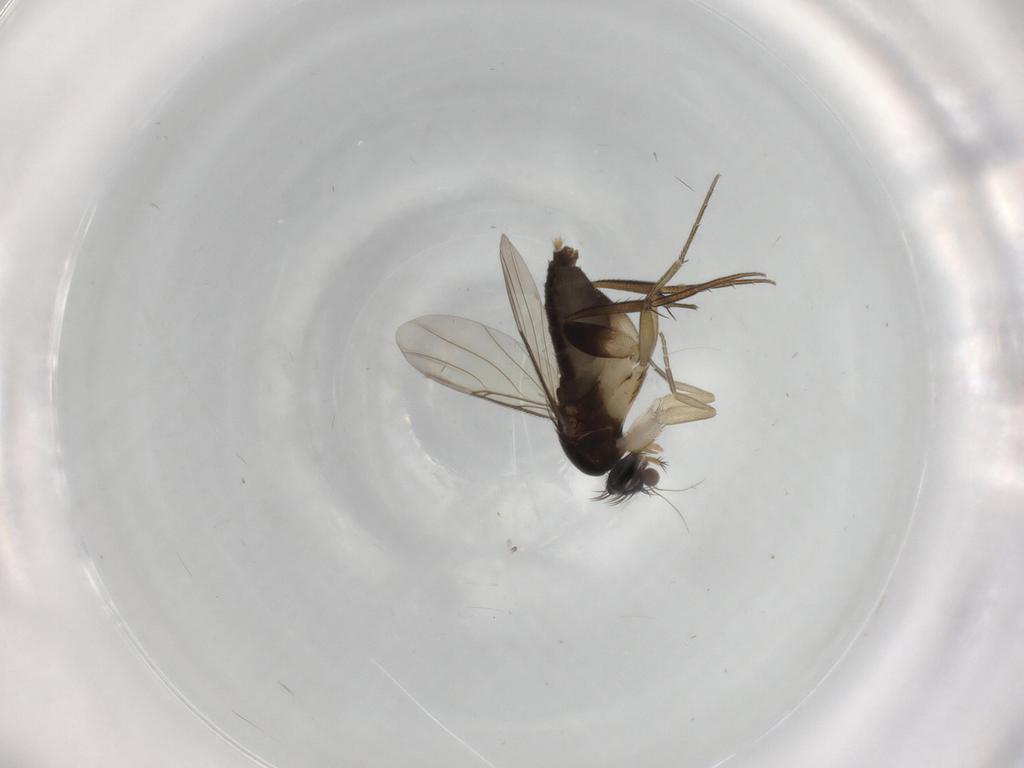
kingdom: Animalia
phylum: Arthropoda
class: Insecta
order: Diptera
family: Phoridae
